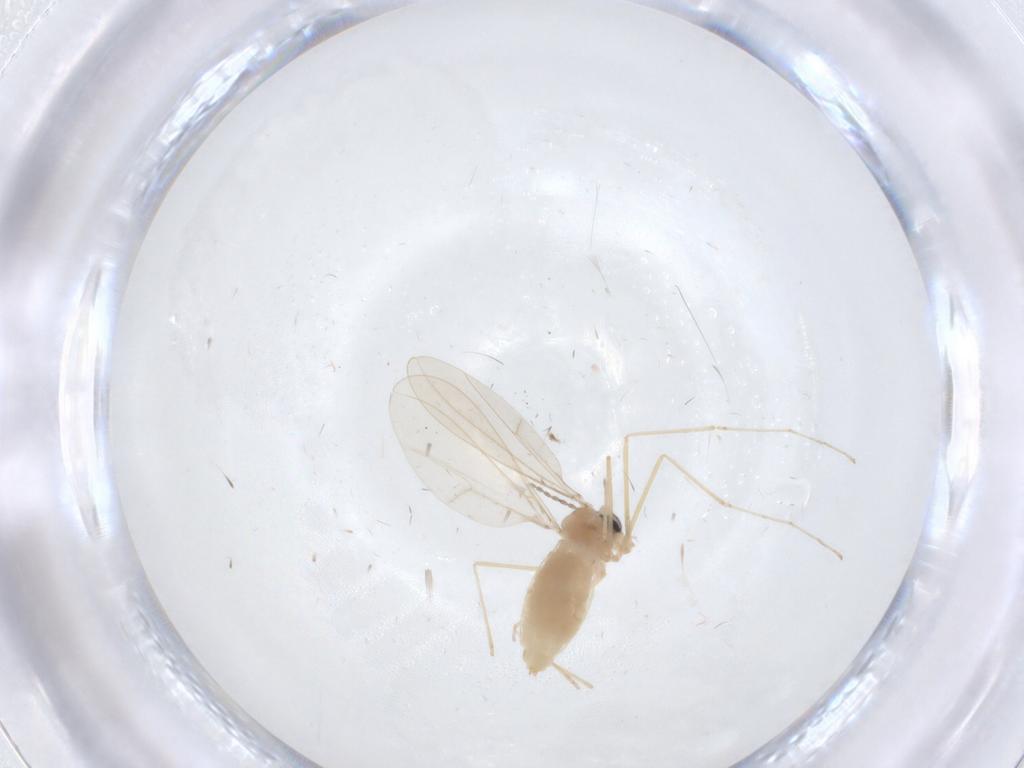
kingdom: Animalia
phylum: Arthropoda
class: Insecta
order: Diptera
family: Cecidomyiidae
